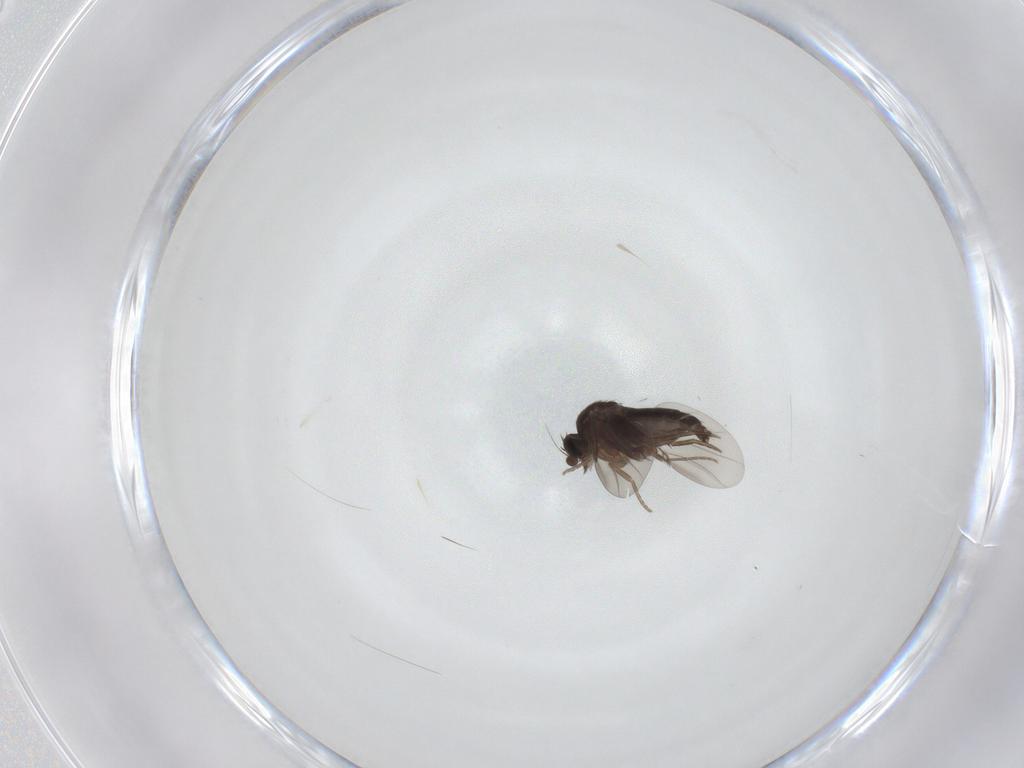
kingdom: Animalia
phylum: Arthropoda
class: Insecta
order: Diptera
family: Phoridae
